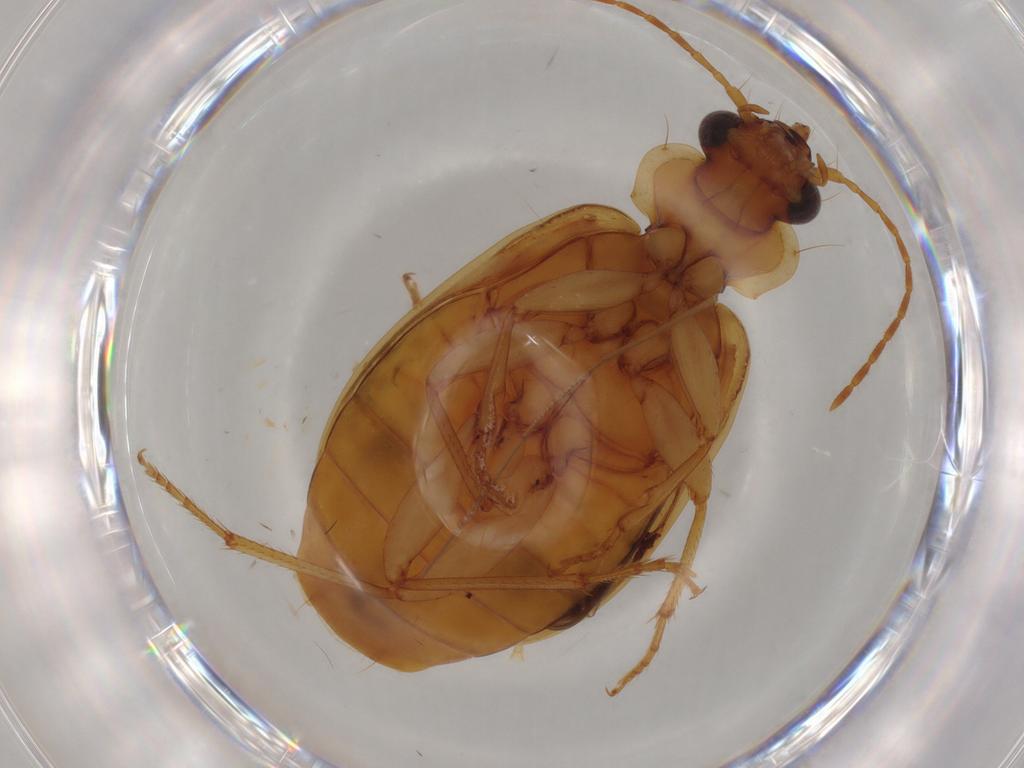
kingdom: Animalia
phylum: Arthropoda
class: Insecta
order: Coleoptera
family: Carabidae
